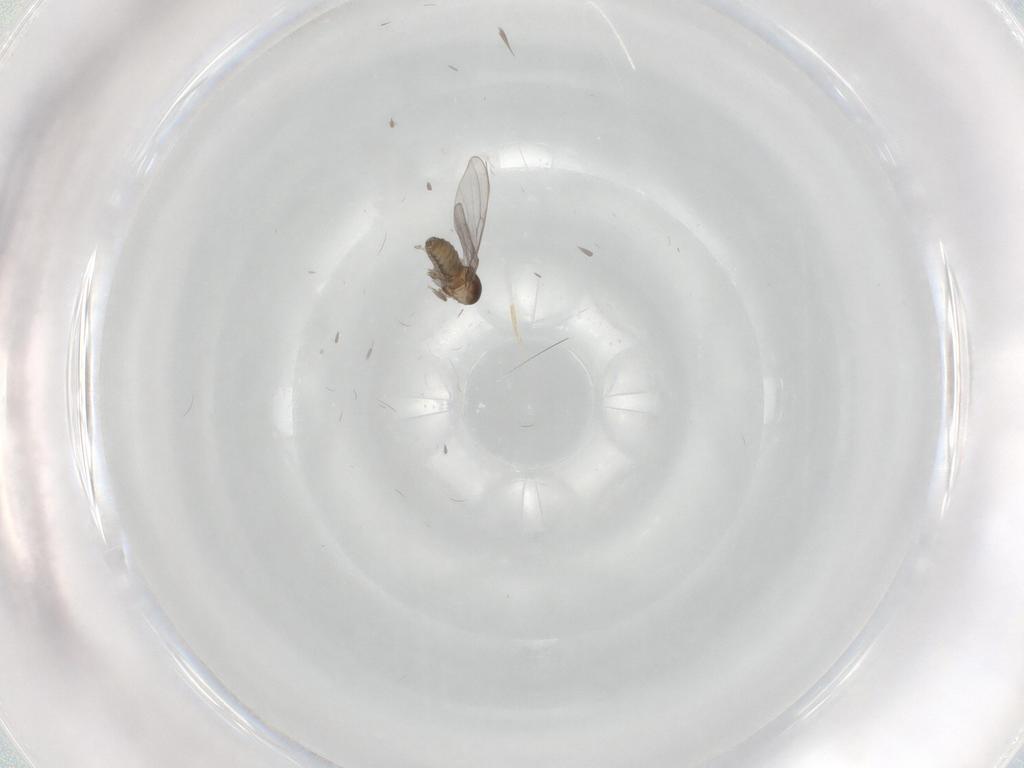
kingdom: Animalia
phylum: Arthropoda
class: Insecta
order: Diptera
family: Cecidomyiidae
